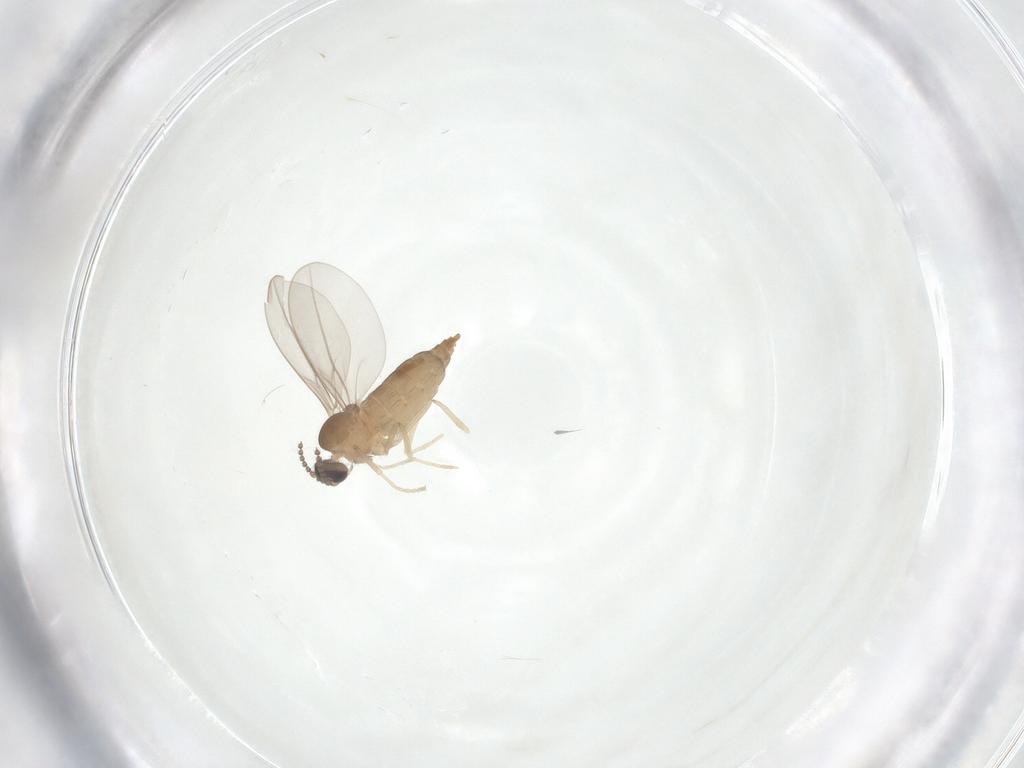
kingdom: Animalia
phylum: Arthropoda
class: Insecta
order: Diptera
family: Cecidomyiidae
